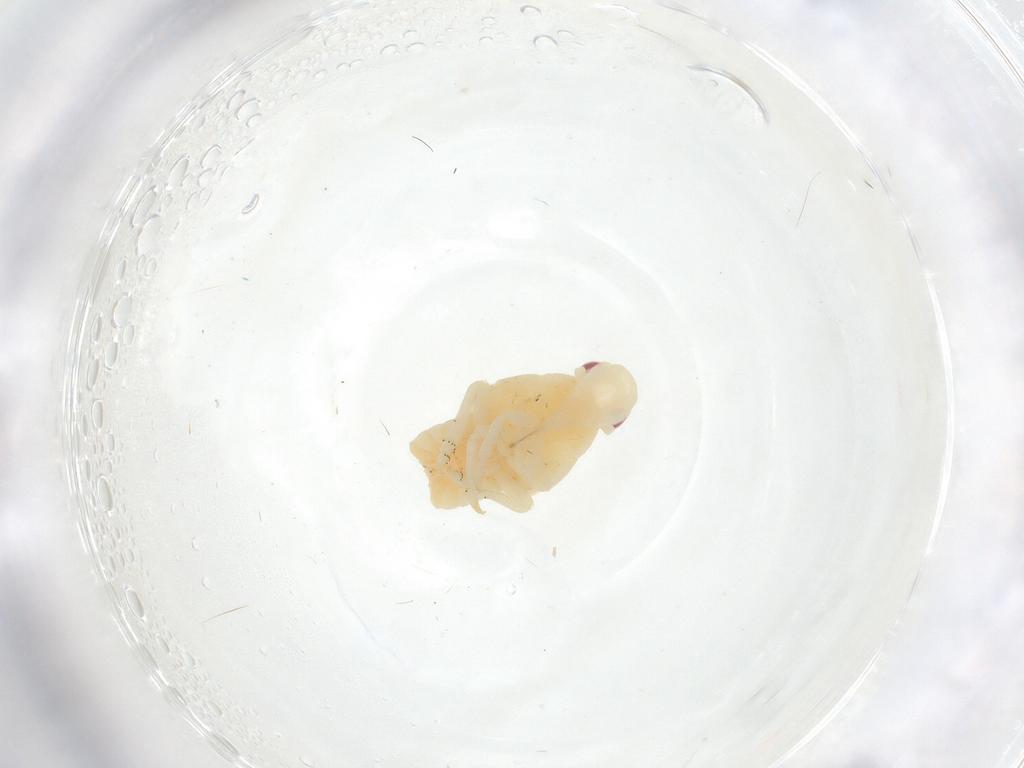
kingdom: Animalia
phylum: Arthropoda
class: Insecta
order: Hemiptera
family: Flatidae
